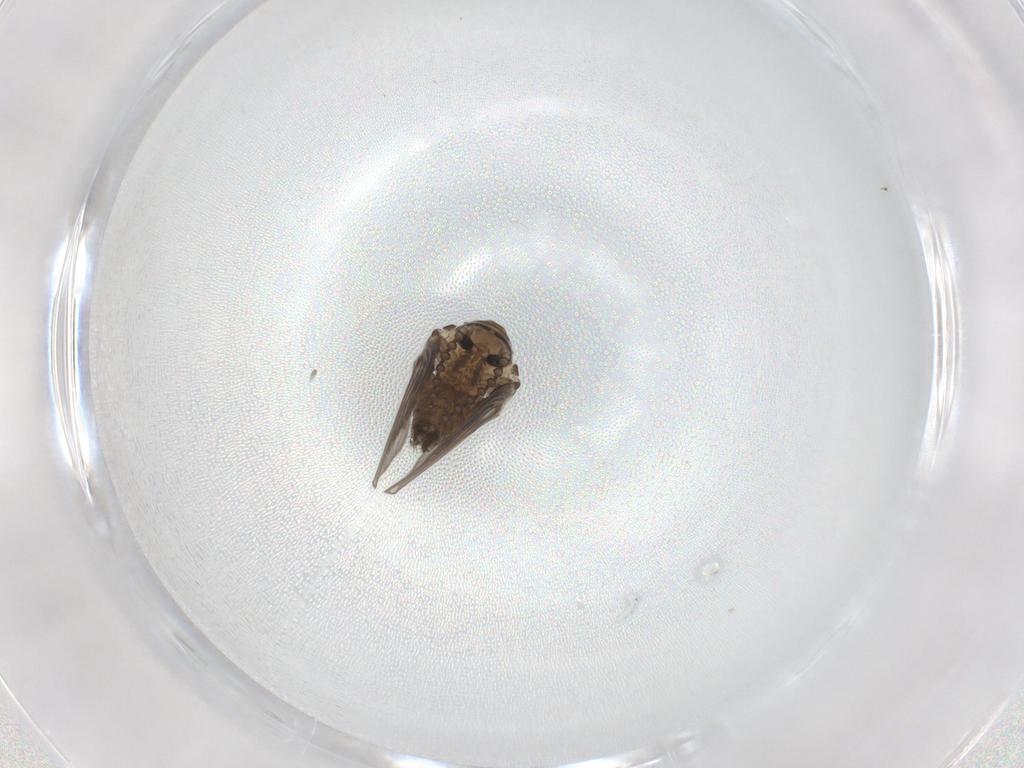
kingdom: Animalia
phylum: Arthropoda
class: Insecta
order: Diptera
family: Psychodidae
